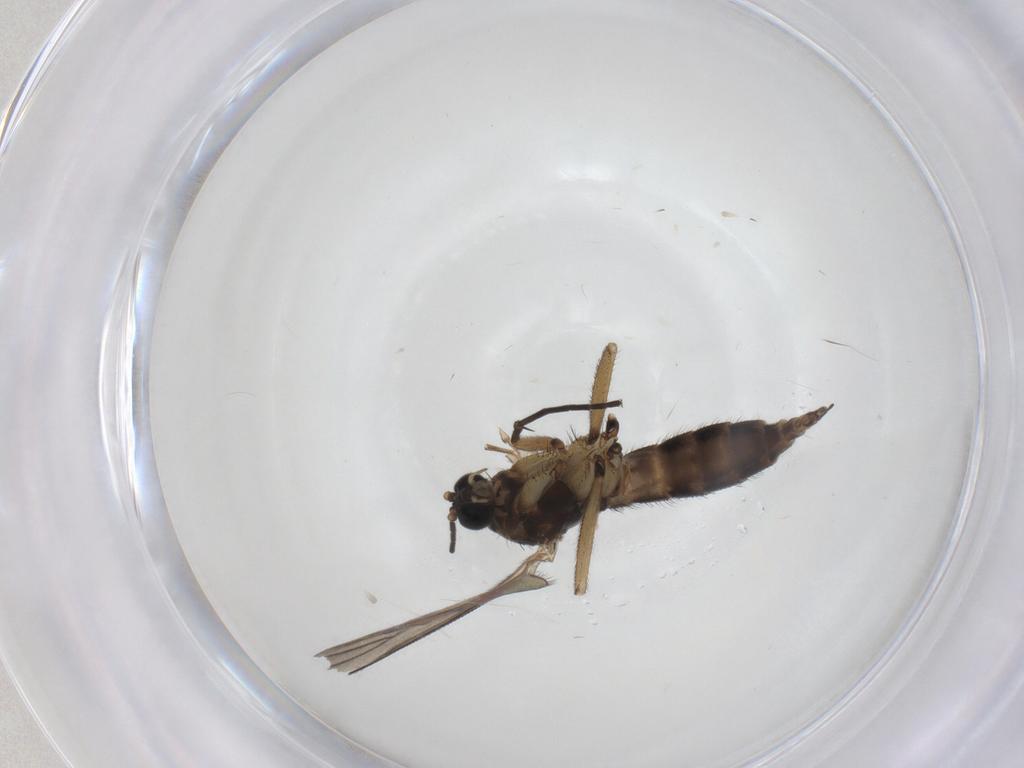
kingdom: Animalia
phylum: Arthropoda
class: Insecta
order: Diptera
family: Sciaridae
